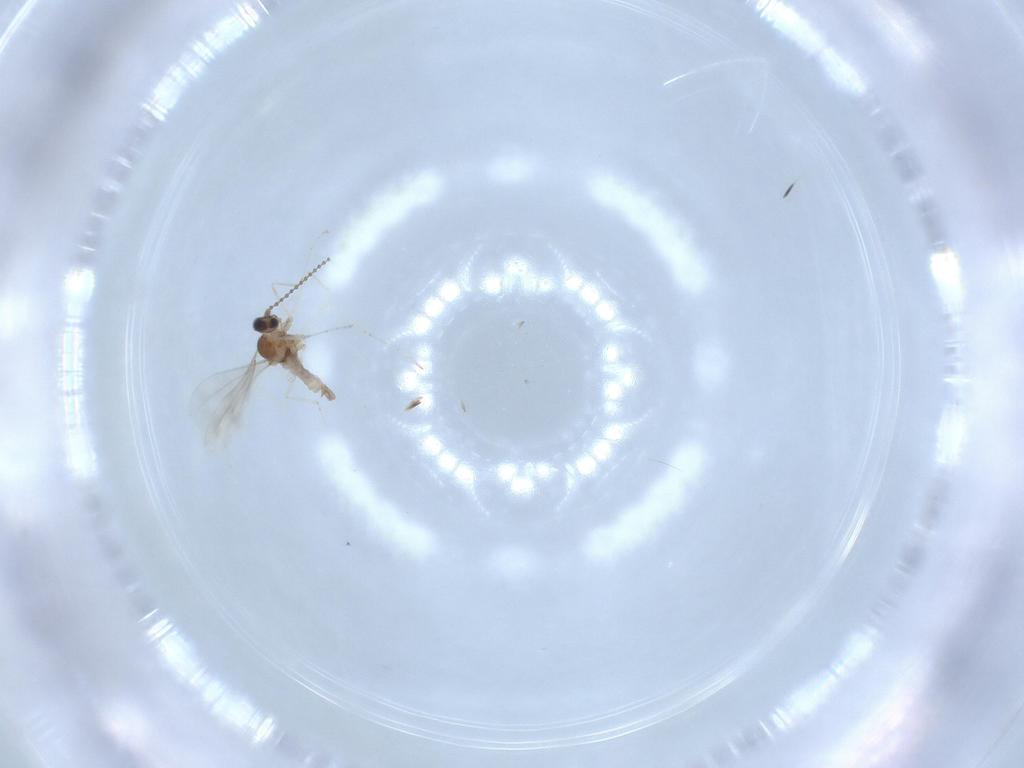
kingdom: Animalia
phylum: Arthropoda
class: Insecta
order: Diptera
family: Cecidomyiidae
